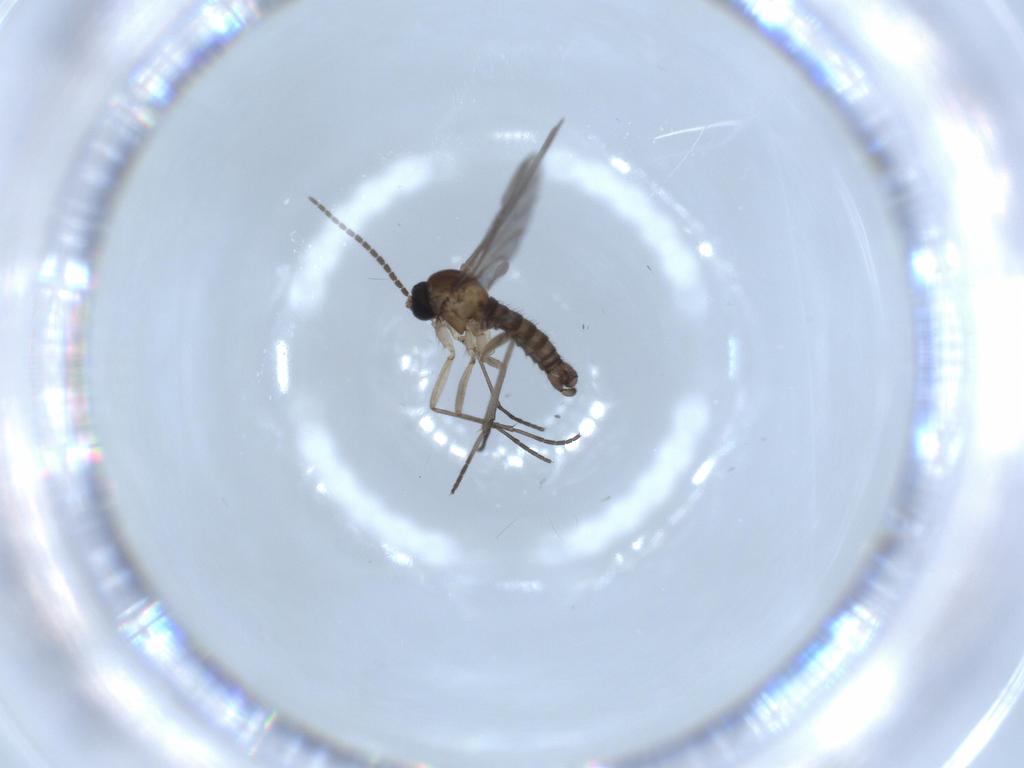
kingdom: Animalia
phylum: Arthropoda
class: Insecta
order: Diptera
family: Sciaridae
